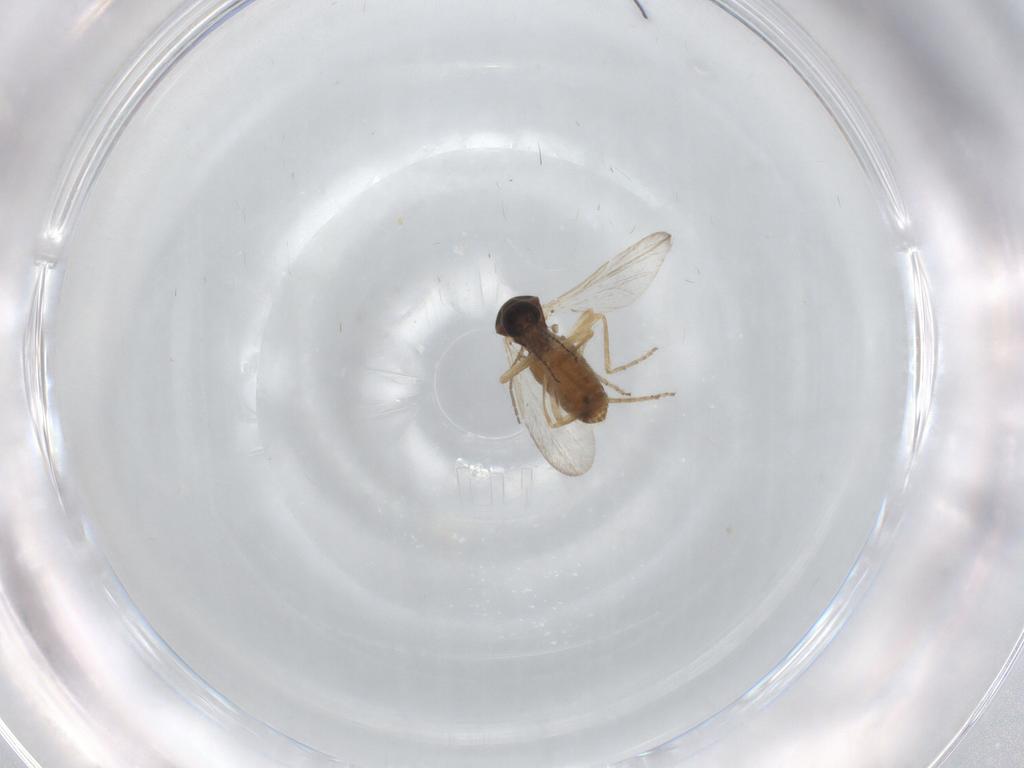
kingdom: Animalia
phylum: Arthropoda
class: Insecta
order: Diptera
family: Ceratopogonidae
